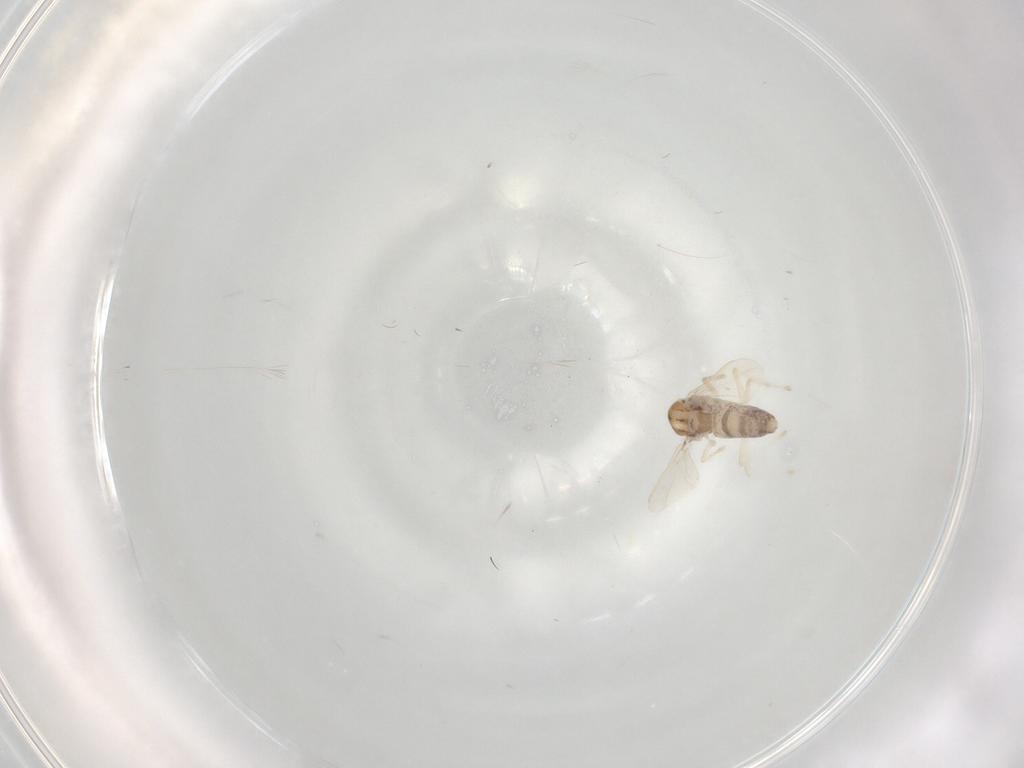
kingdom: Animalia
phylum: Arthropoda
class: Insecta
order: Diptera
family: Chironomidae
